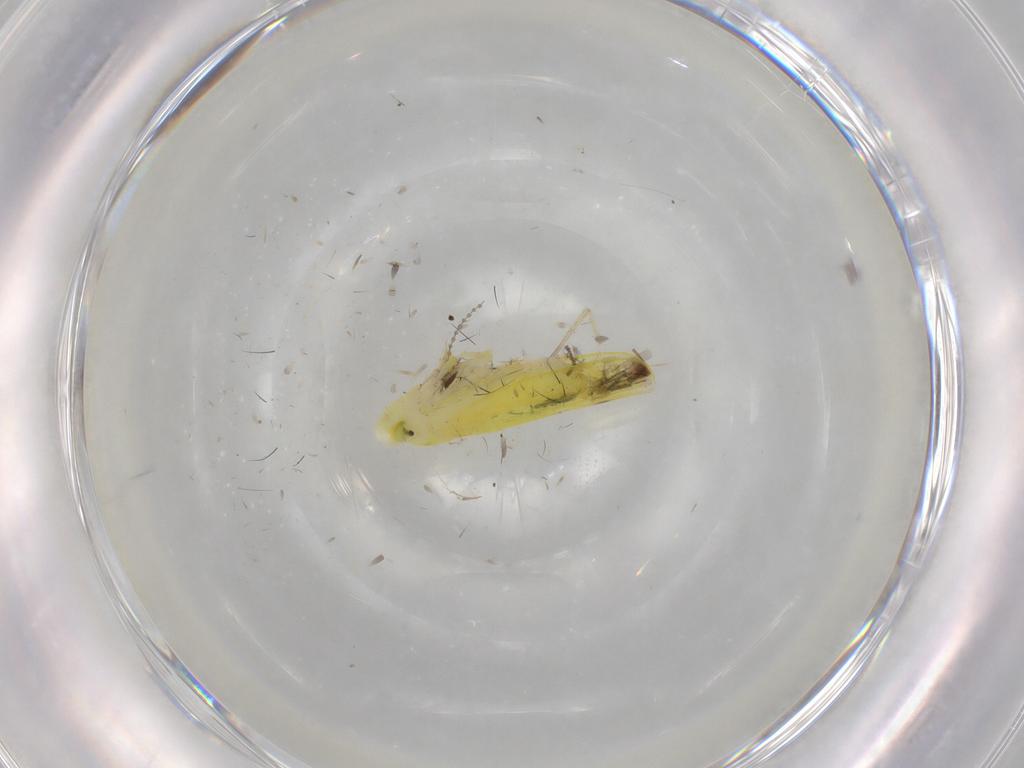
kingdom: Animalia
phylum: Arthropoda
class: Insecta
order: Hemiptera
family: Cicadellidae
